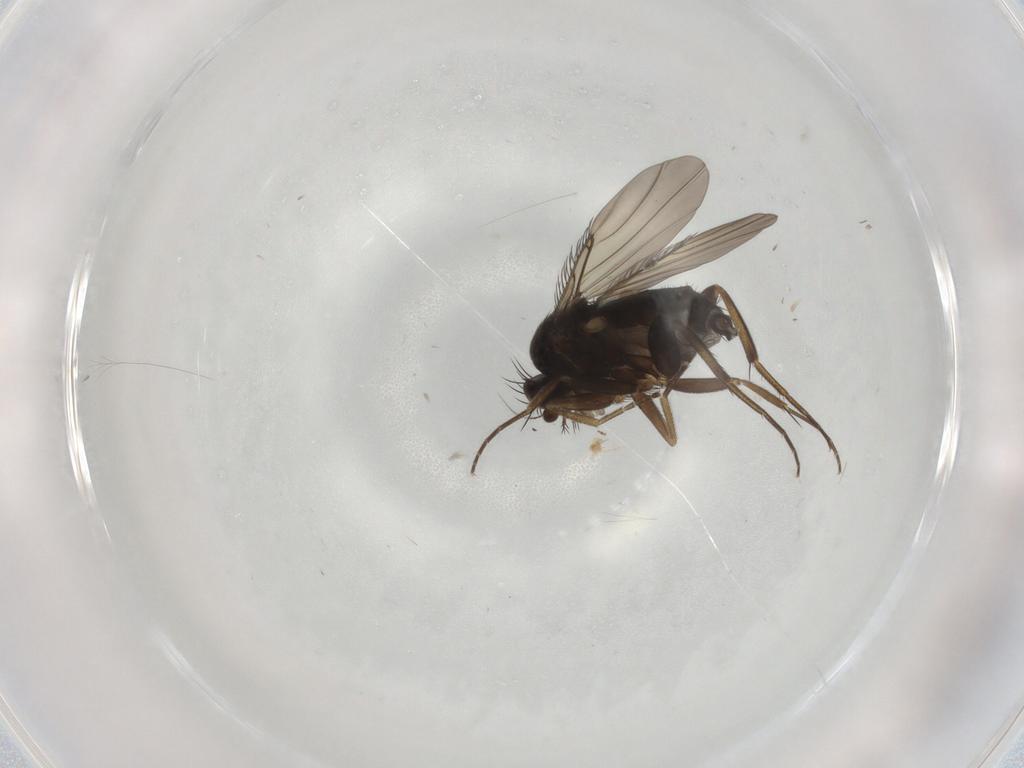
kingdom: Animalia
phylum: Arthropoda
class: Insecta
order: Diptera
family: Phoridae
